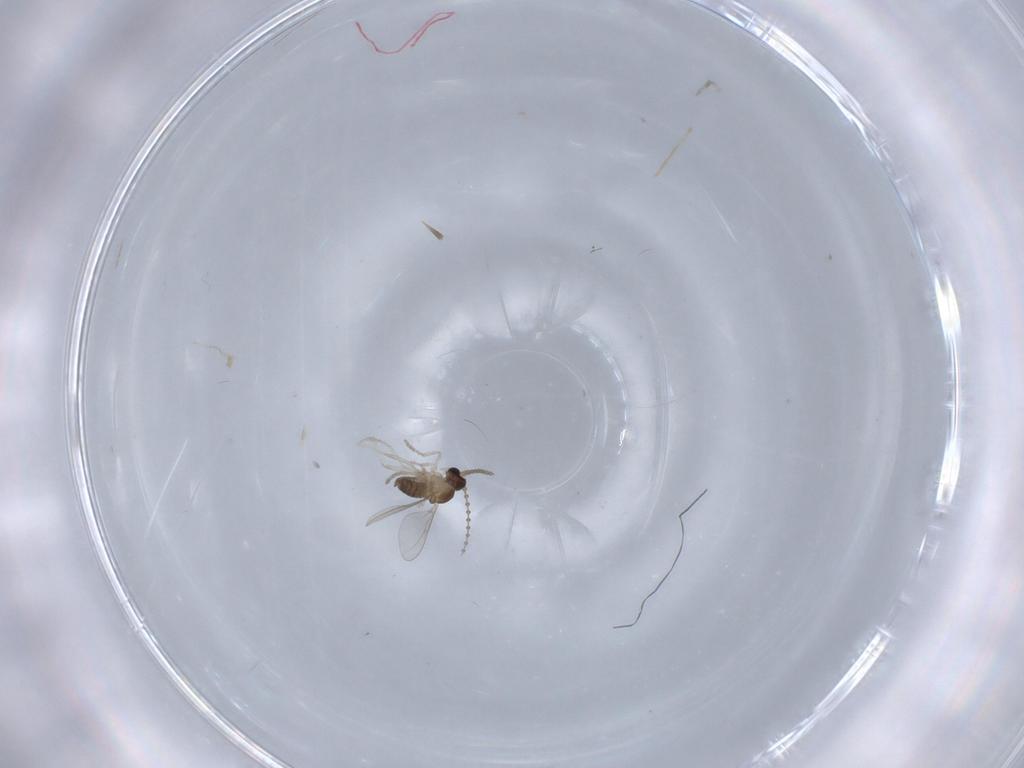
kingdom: Animalia
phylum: Arthropoda
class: Insecta
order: Diptera
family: Cecidomyiidae
